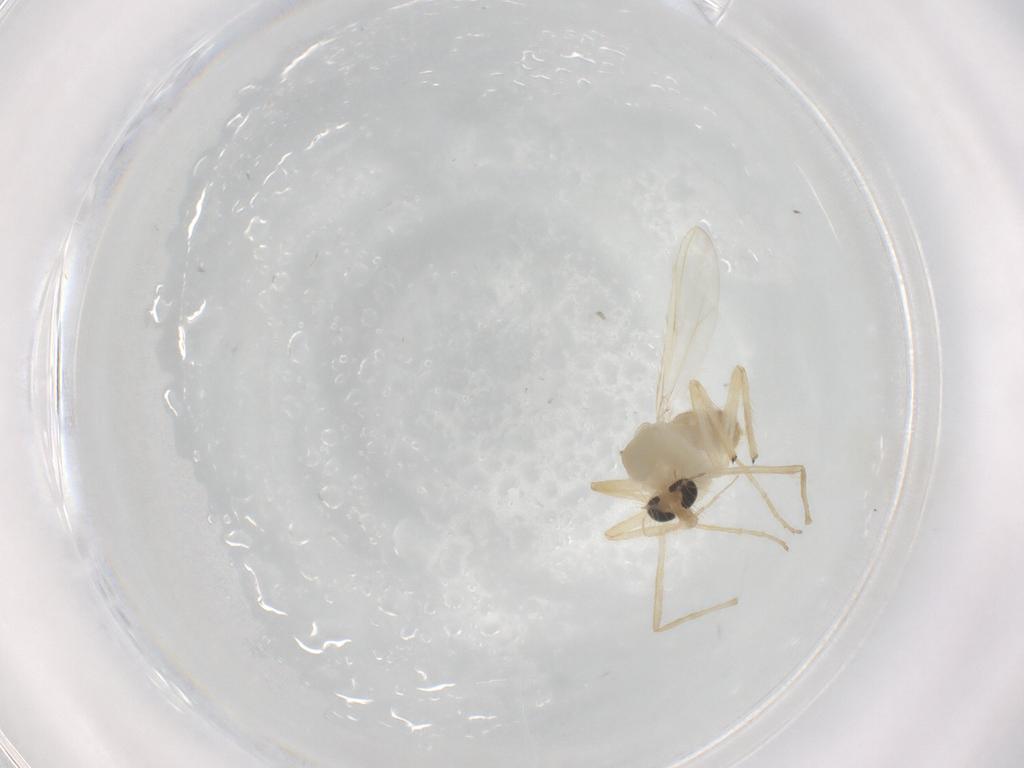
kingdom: Animalia
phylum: Arthropoda
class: Insecta
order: Diptera
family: Chironomidae
